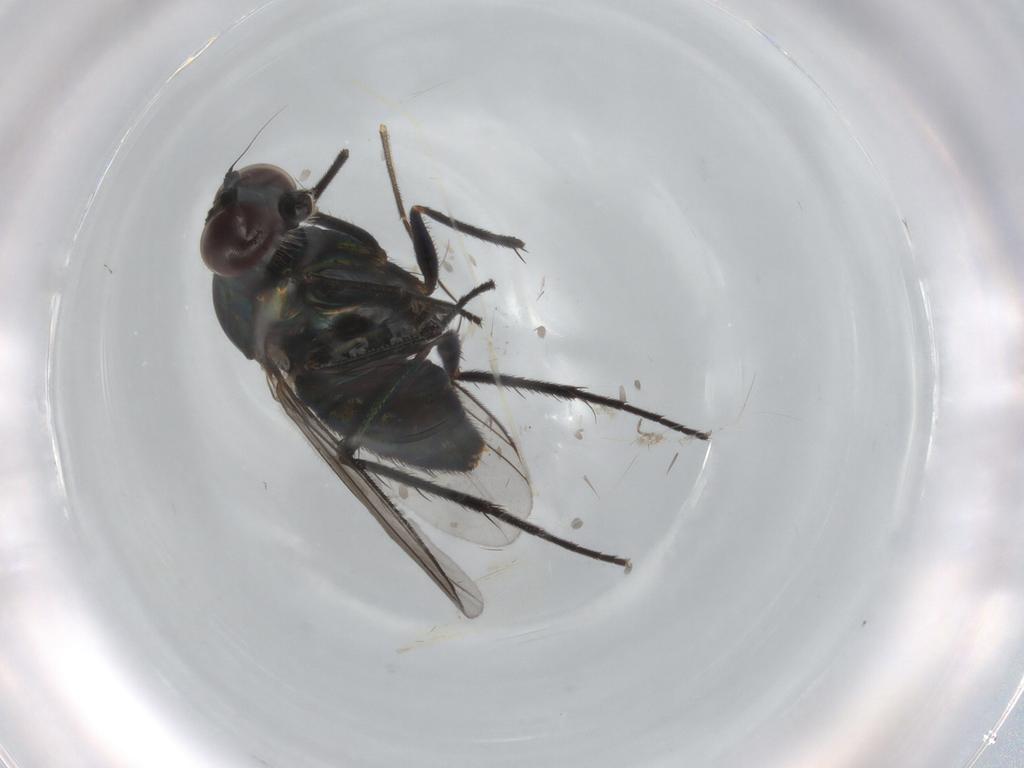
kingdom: Animalia
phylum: Arthropoda
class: Insecta
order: Diptera
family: Dolichopodidae
